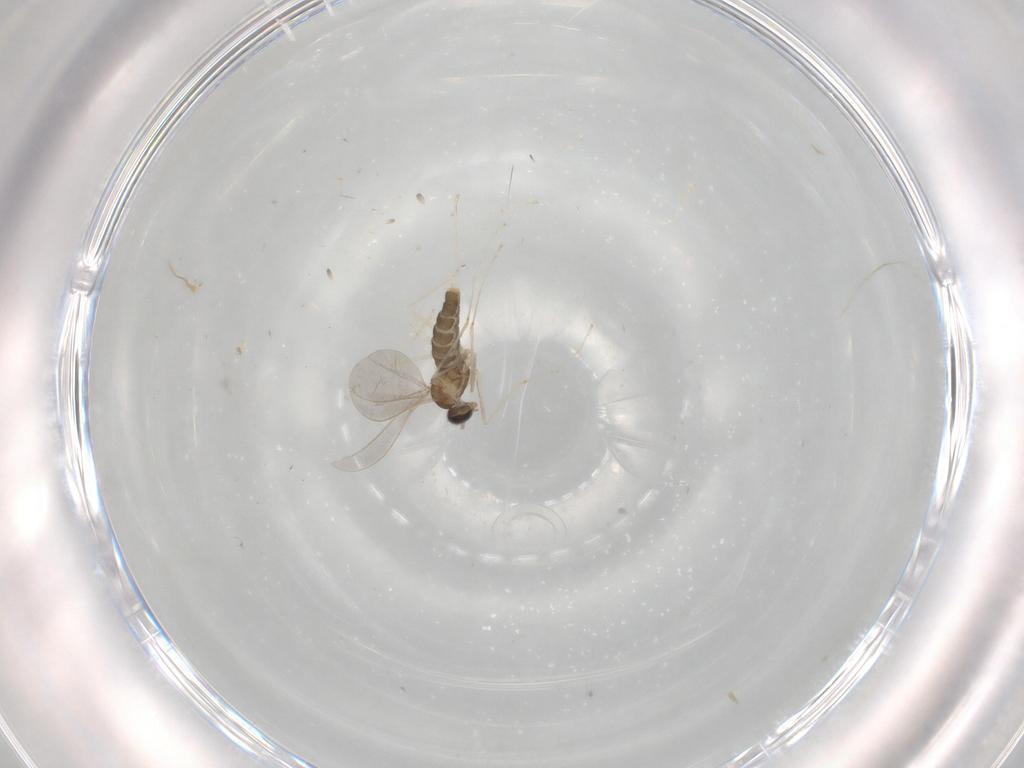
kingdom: Animalia
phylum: Arthropoda
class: Insecta
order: Diptera
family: Cecidomyiidae
